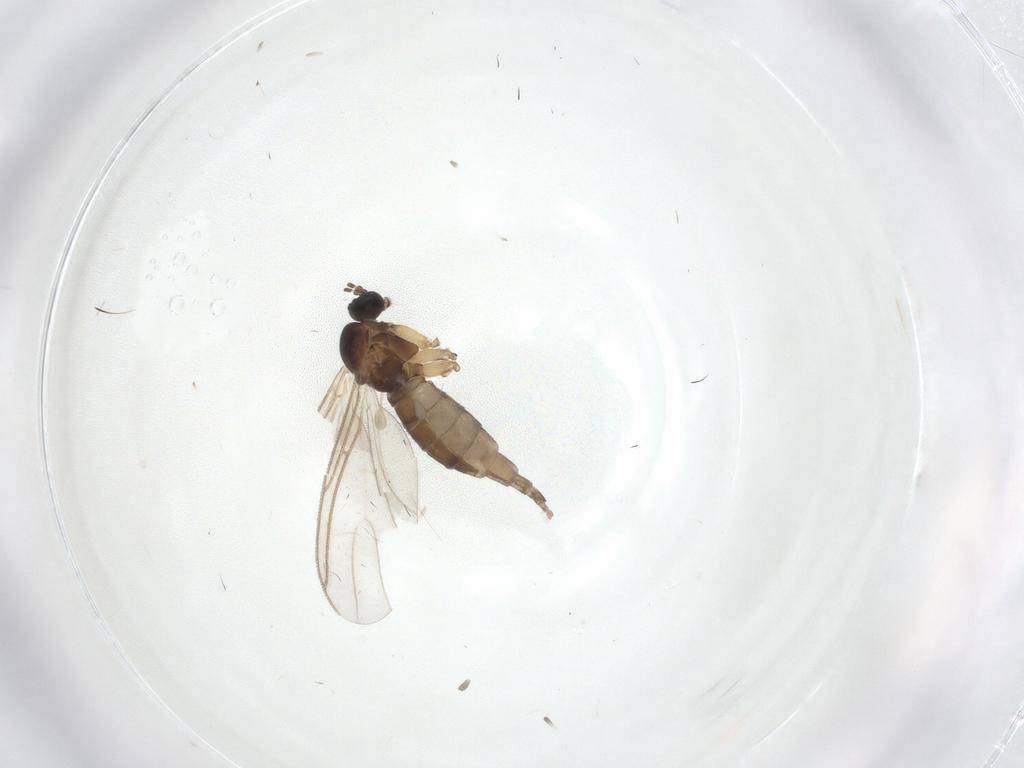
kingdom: Animalia
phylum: Arthropoda
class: Insecta
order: Diptera
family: Sciaridae
